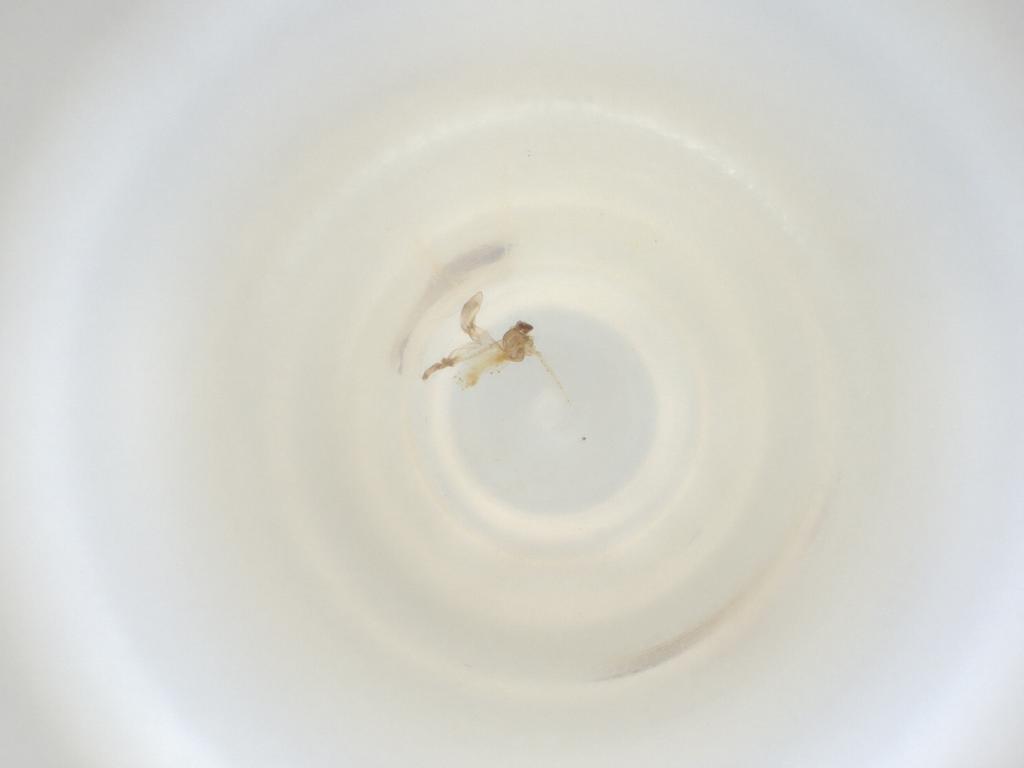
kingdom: Animalia
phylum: Arthropoda
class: Insecta
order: Diptera
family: Cecidomyiidae
